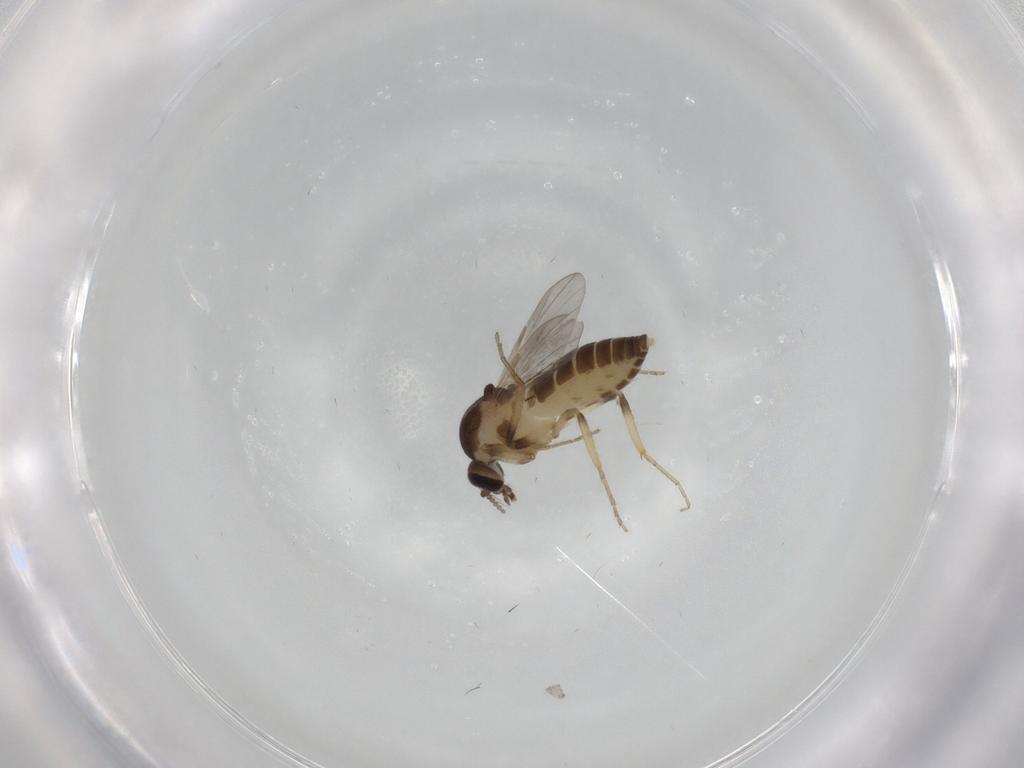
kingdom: Animalia
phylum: Arthropoda
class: Insecta
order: Diptera
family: Ceratopogonidae
